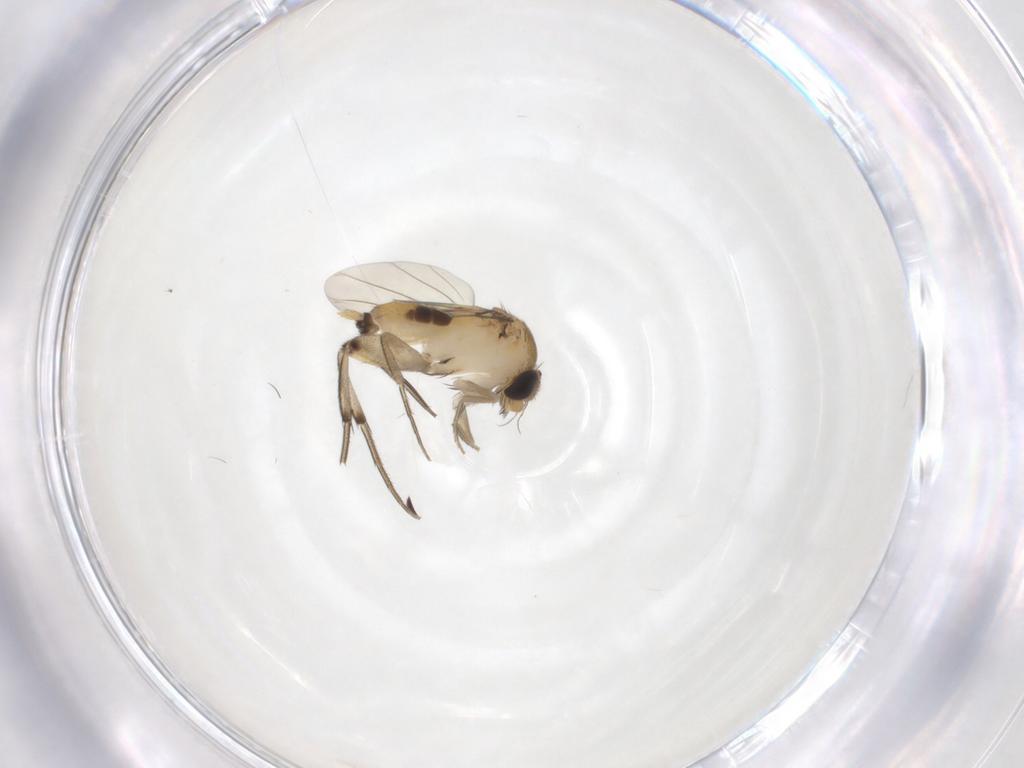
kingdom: Animalia
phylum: Arthropoda
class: Insecta
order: Diptera
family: Phoridae
